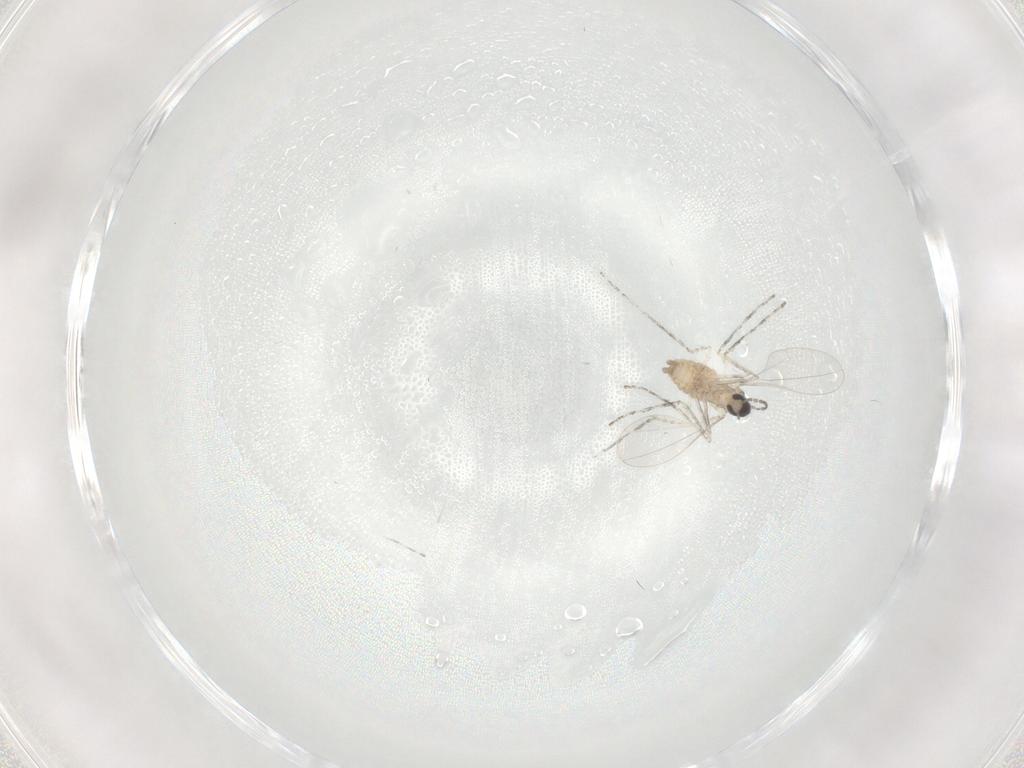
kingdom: Animalia
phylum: Arthropoda
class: Insecta
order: Diptera
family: Cecidomyiidae
